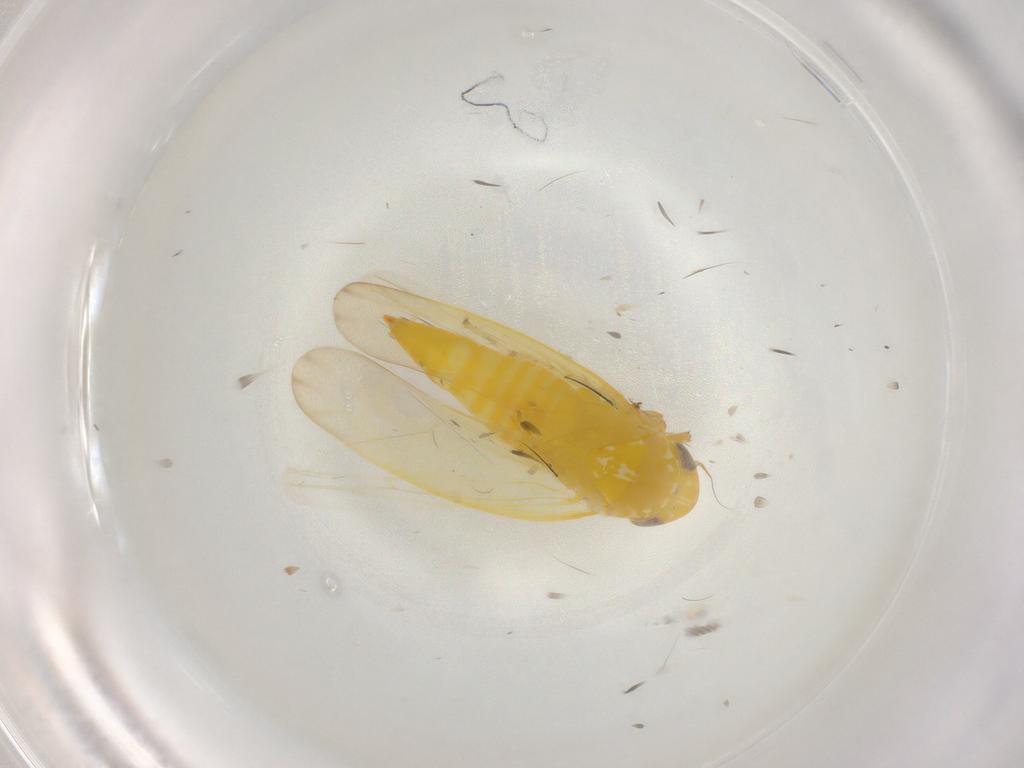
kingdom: Animalia
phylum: Arthropoda
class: Insecta
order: Hemiptera
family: Cicadellidae
